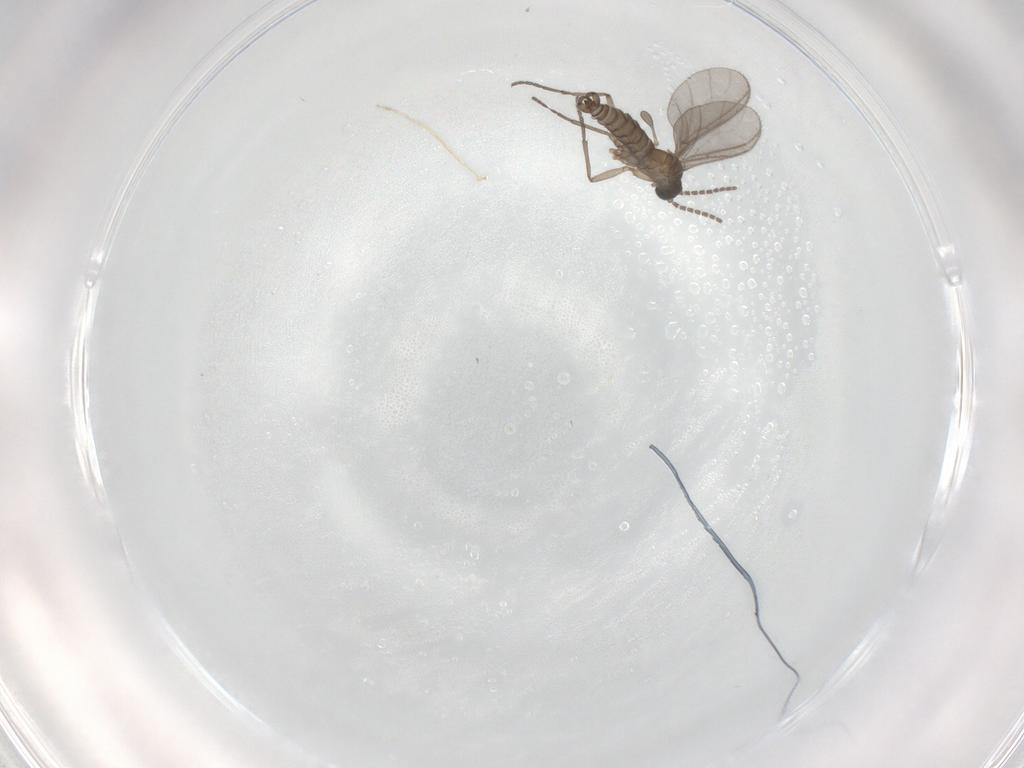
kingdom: Animalia
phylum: Arthropoda
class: Insecta
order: Diptera
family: Sciaridae
